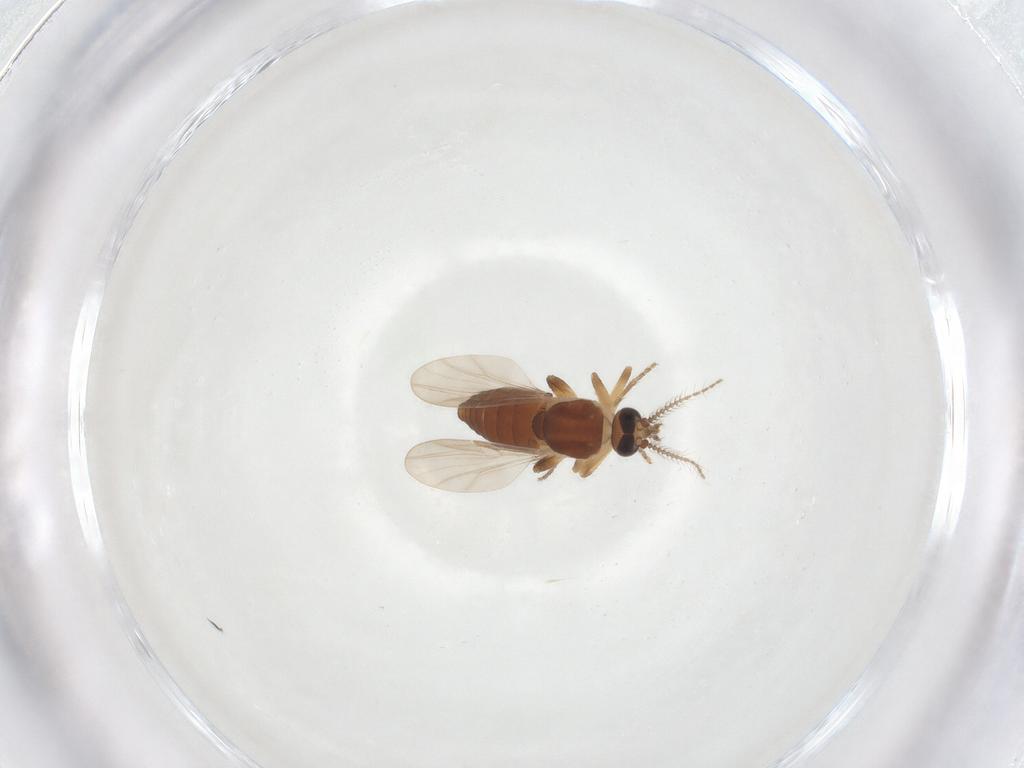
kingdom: Animalia
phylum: Arthropoda
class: Insecta
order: Diptera
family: Ceratopogonidae
